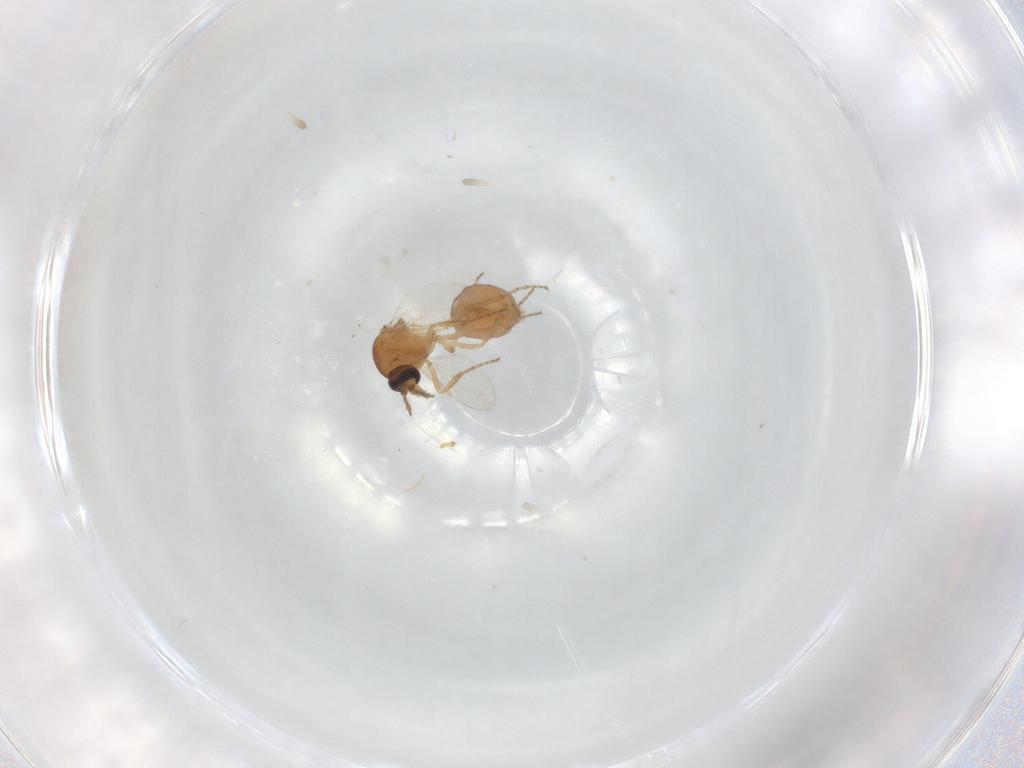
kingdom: Animalia
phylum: Arthropoda
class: Insecta
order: Diptera
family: Ceratopogonidae
